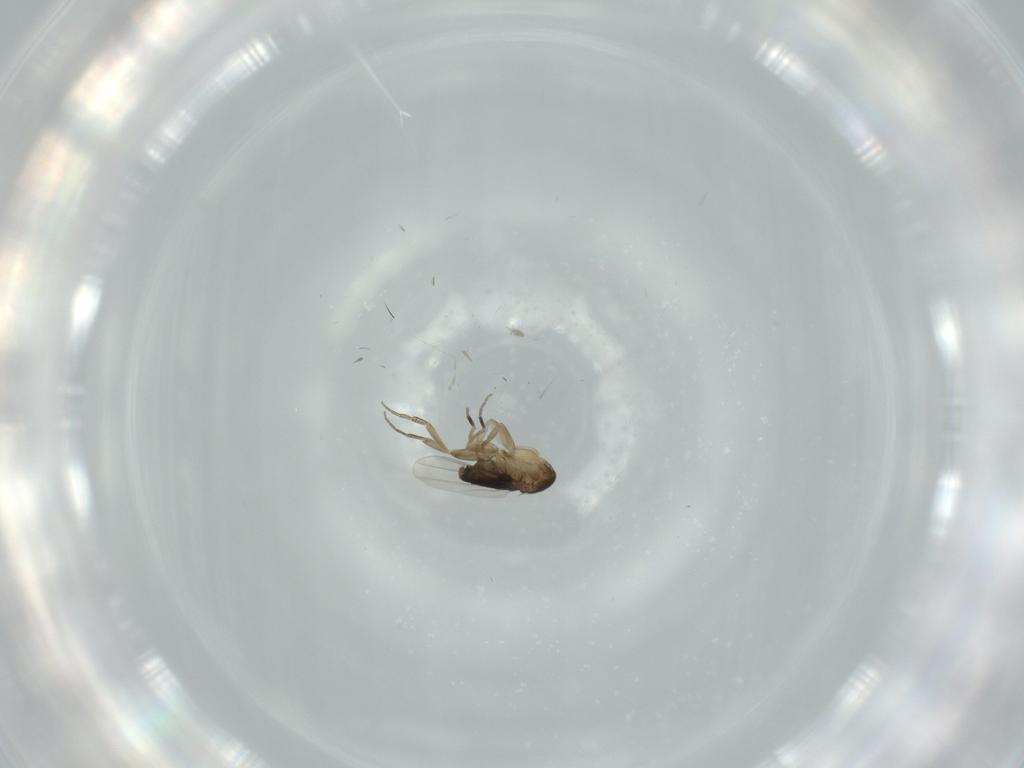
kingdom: Animalia
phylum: Arthropoda
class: Insecta
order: Diptera
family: Phoridae
